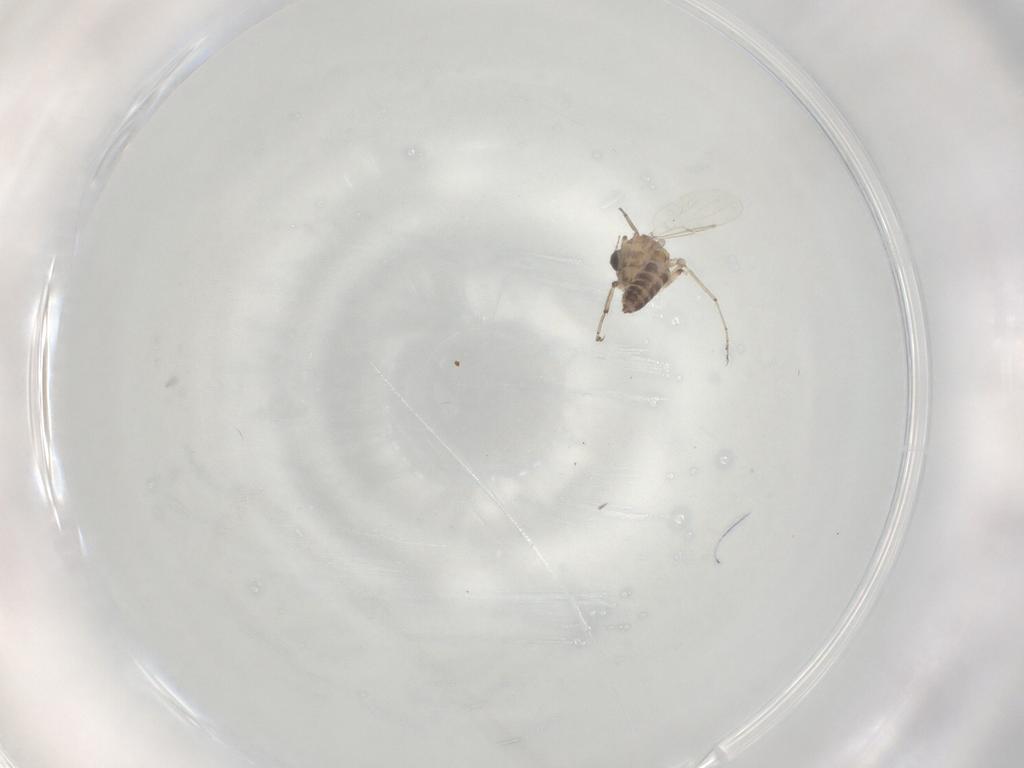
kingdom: Animalia
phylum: Arthropoda
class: Insecta
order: Diptera
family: Ceratopogonidae
